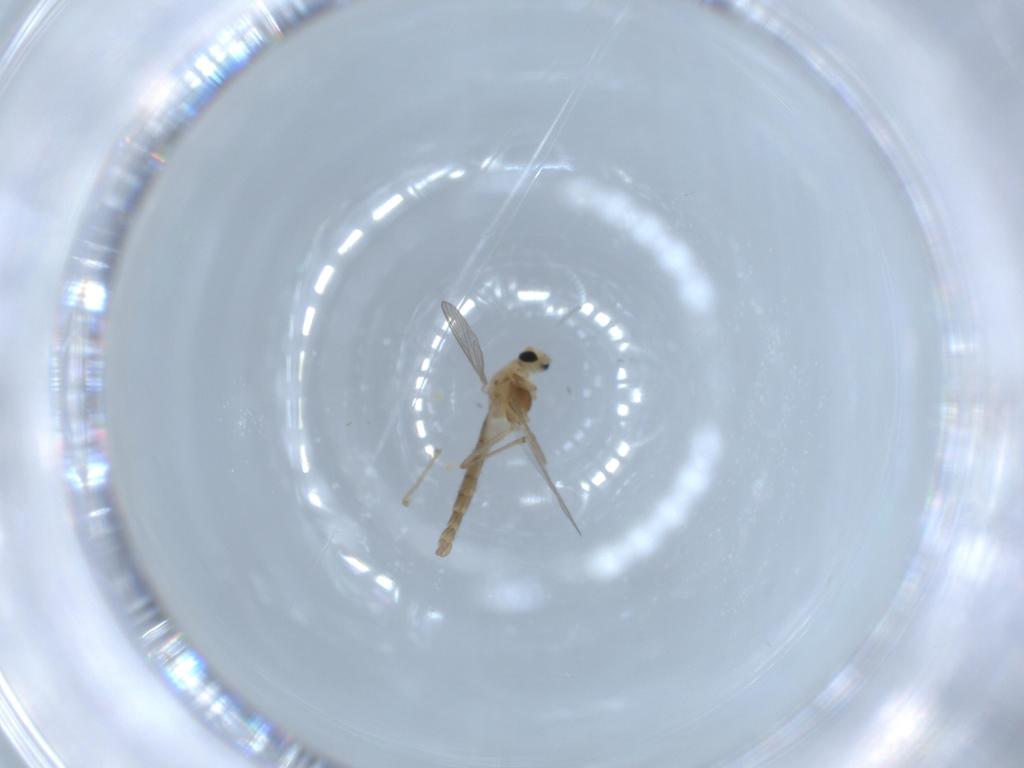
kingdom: Animalia
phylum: Arthropoda
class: Insecta
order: Diptera
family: Chironomidae
